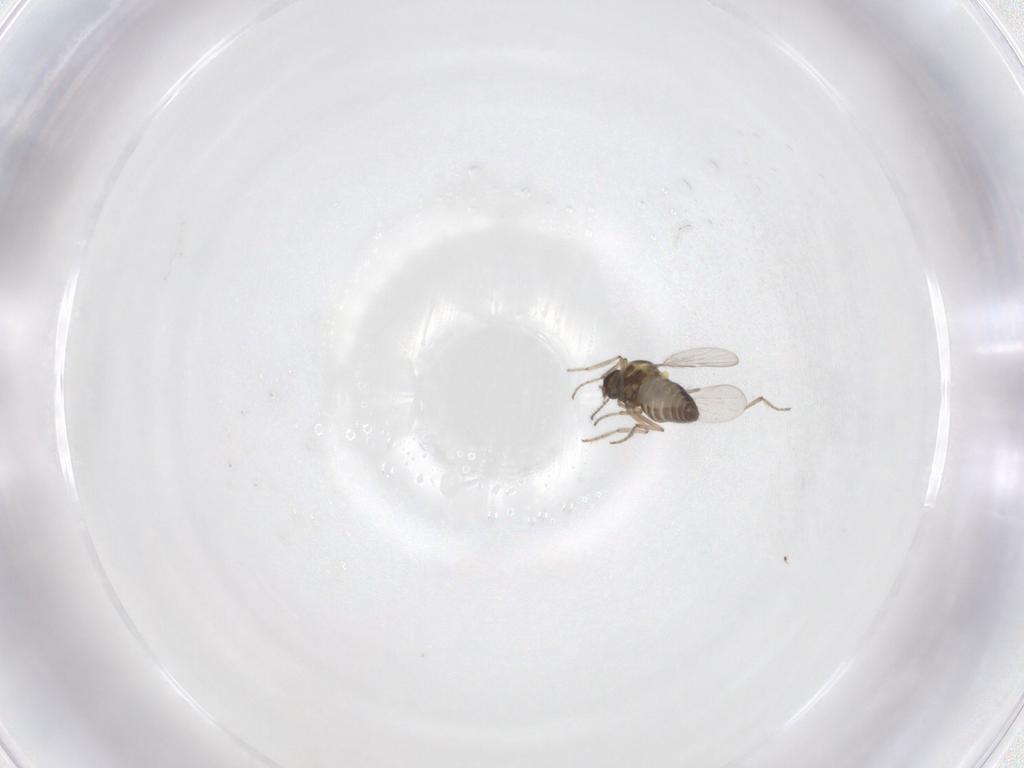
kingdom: Animalia
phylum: Arthropoda
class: Insecta
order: Diptera
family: Ceratopogonidae
